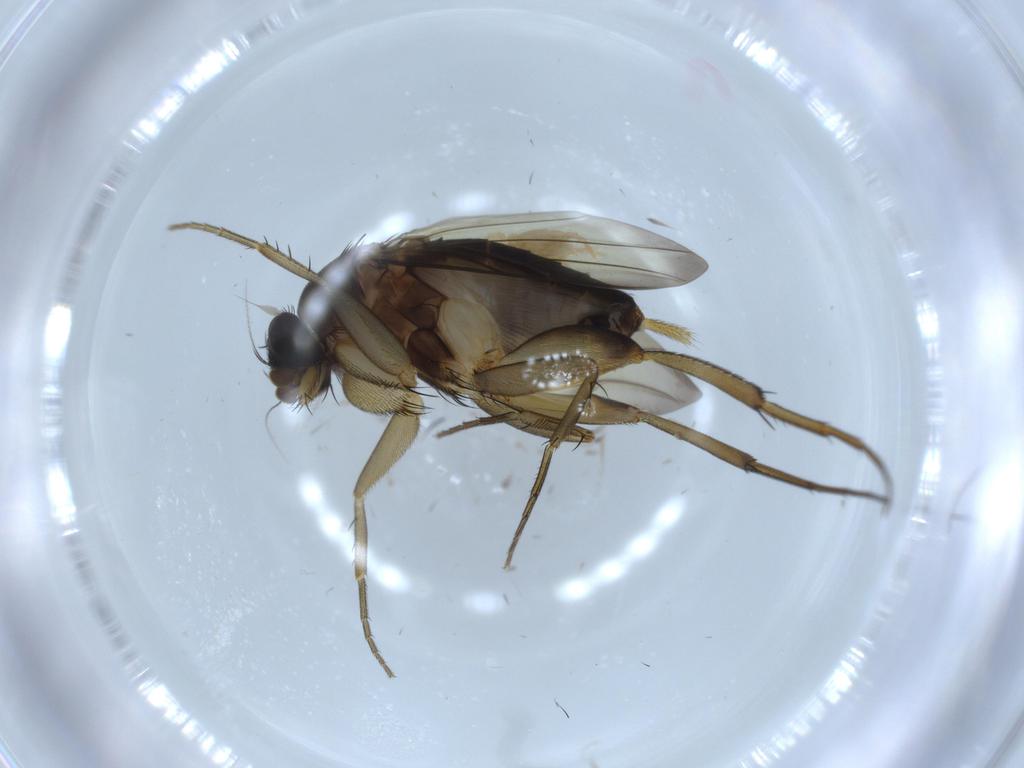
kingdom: Animalia
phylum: Arthropoda
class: Insecta
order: Diptera
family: Phoridae
